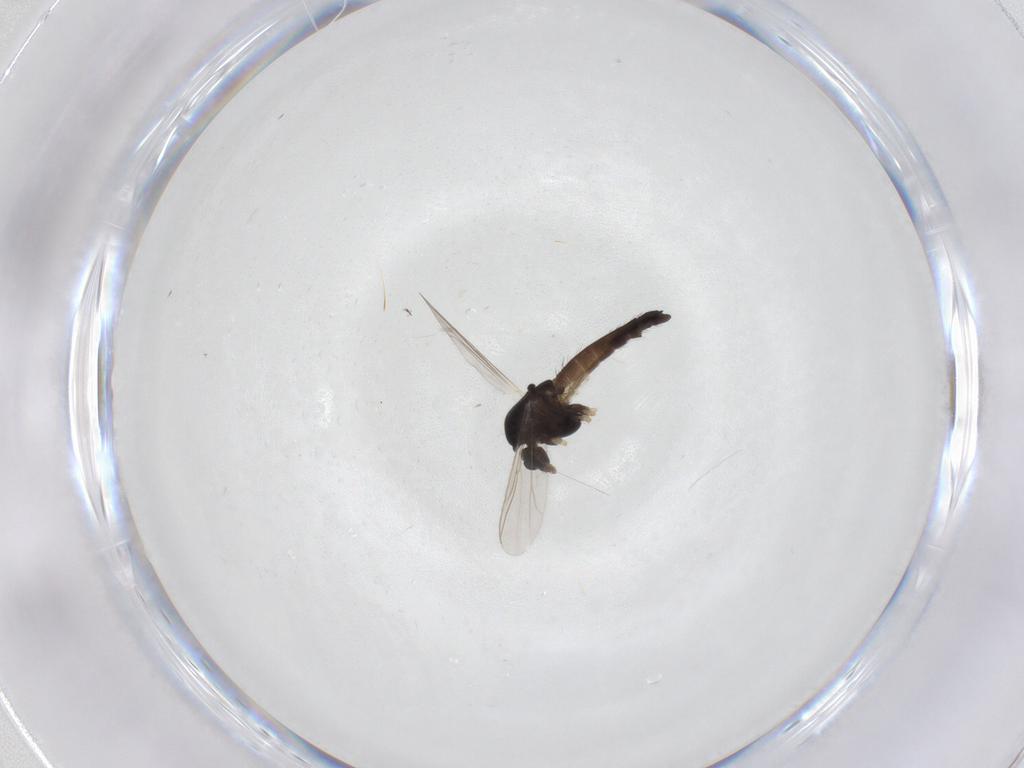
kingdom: Animalia
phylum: Arthropoda
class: Insecta
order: Diptera
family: Chironomidae
